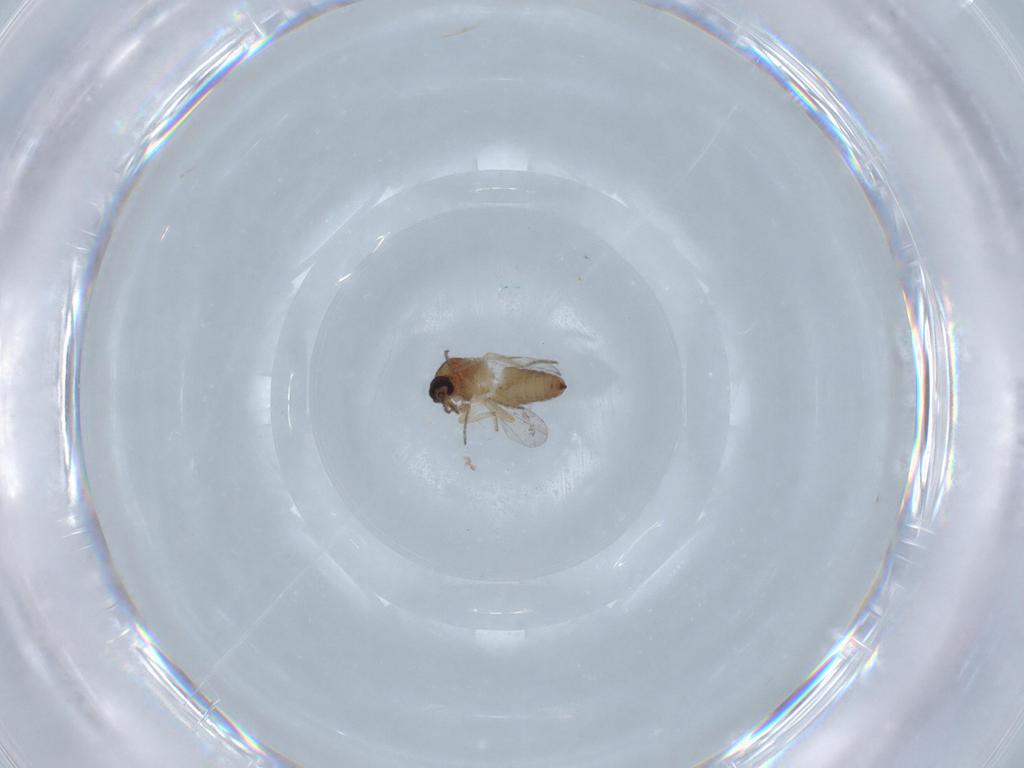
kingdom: Animalia
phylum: Arthropoda
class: Insecta
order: Diptera
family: Ceratopogonidae
